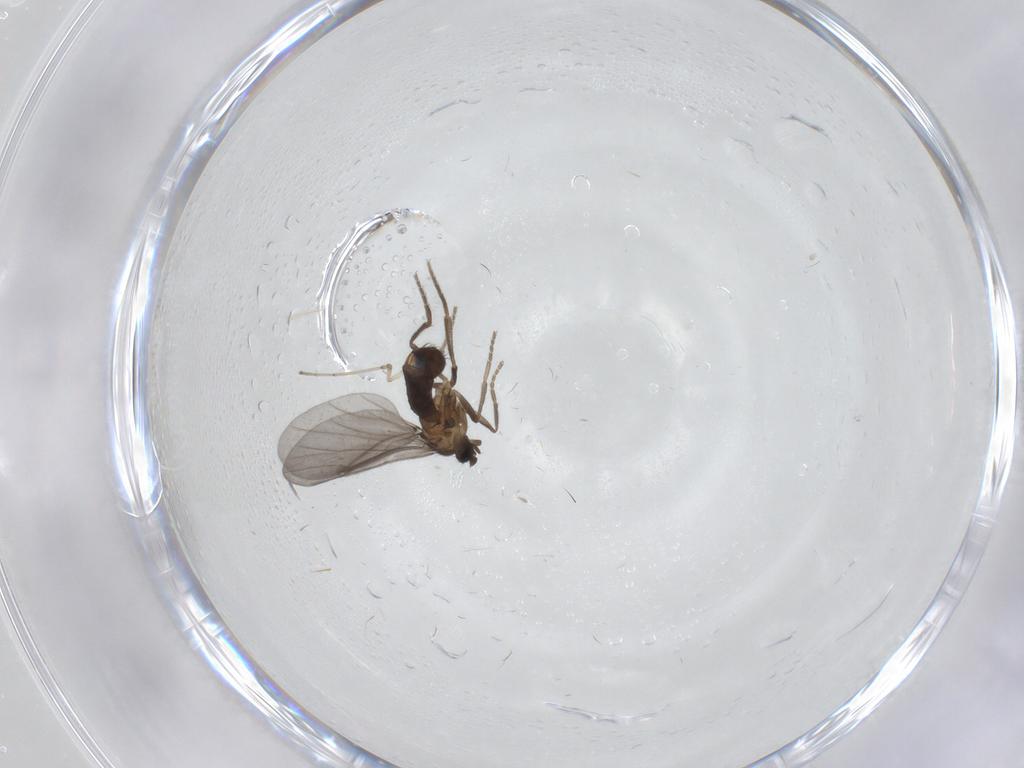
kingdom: Animalia
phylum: Arthropoda
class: Insecta
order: Diptera
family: Phoridae
